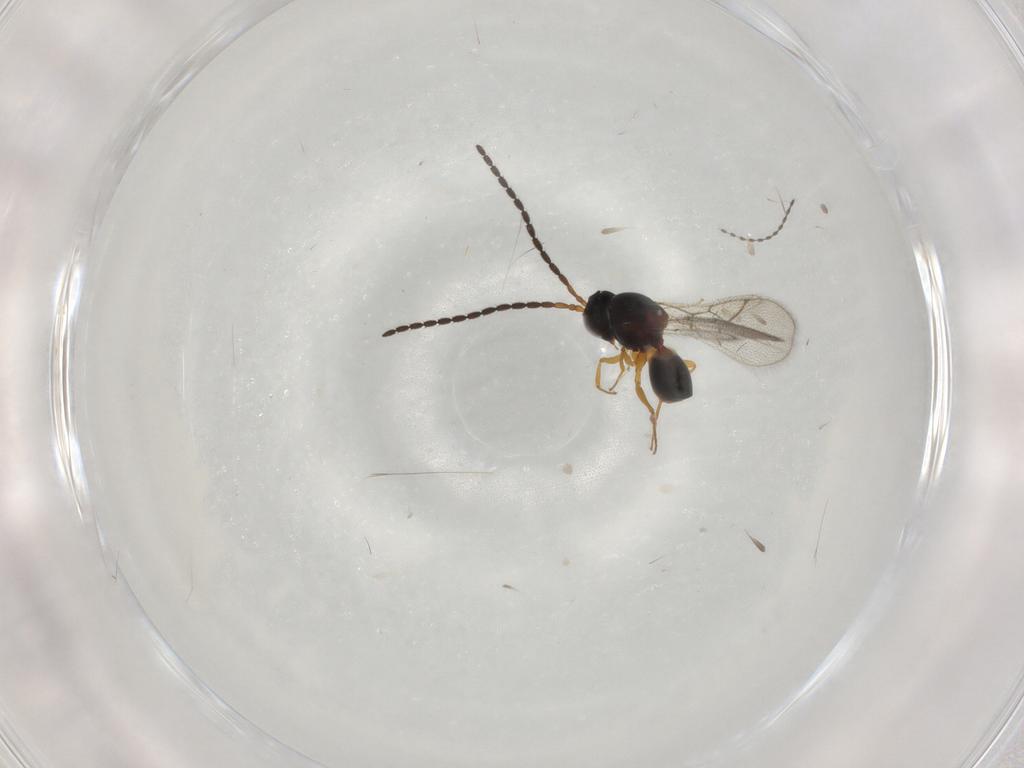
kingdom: Animalia
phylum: Arthropoda
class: Insecta
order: Hymenoptera
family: Figitidae
